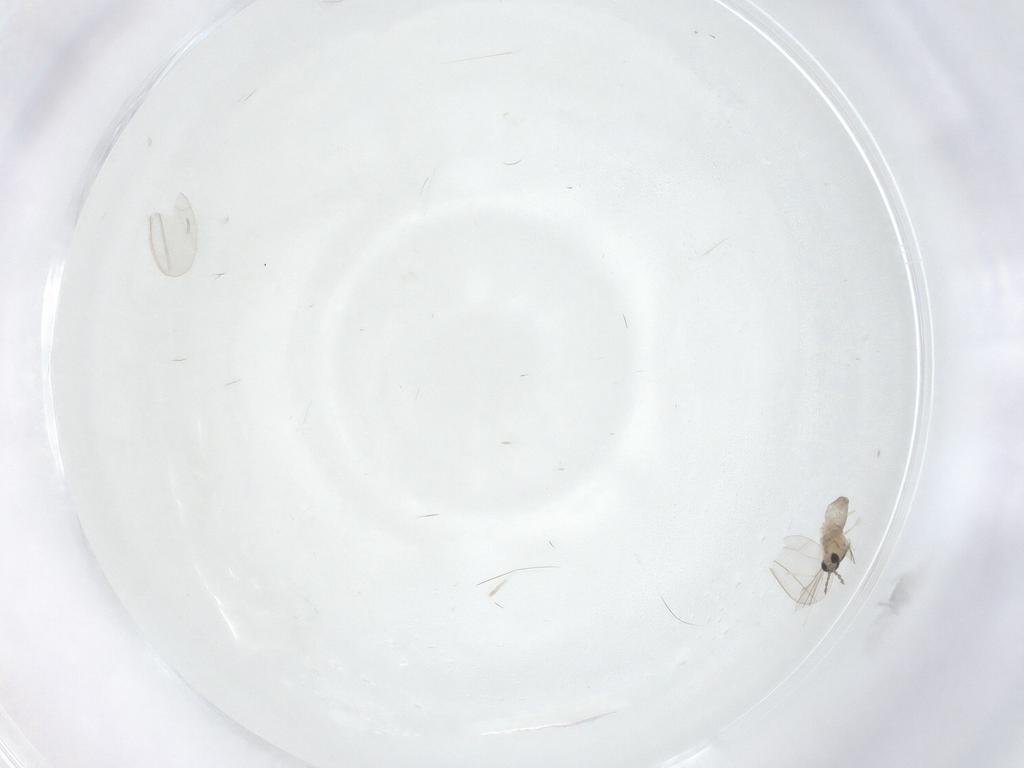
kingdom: Animalia
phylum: Arthropoda
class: Insecta
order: Diptera
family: Cecidomyiidae
